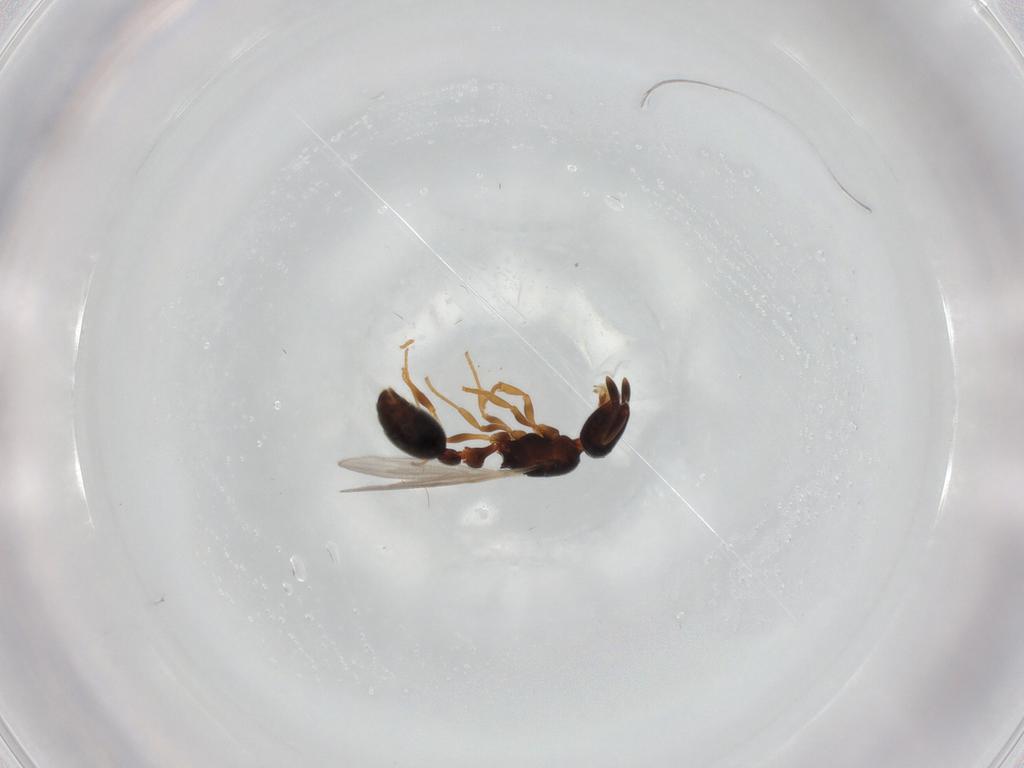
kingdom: Animalia
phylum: Arthropoda
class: Insecta
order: Hymenoptera
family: Formicidae
